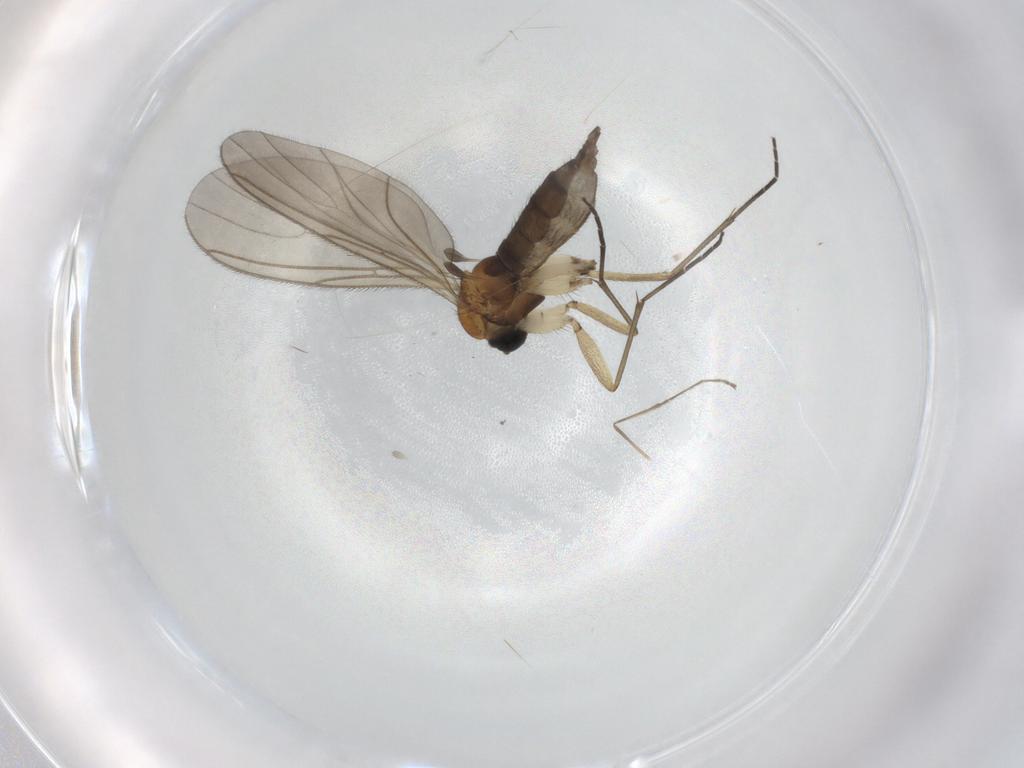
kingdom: Animalia
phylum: Arthropoda
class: Insecta
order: Diptera
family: Sciaridae
